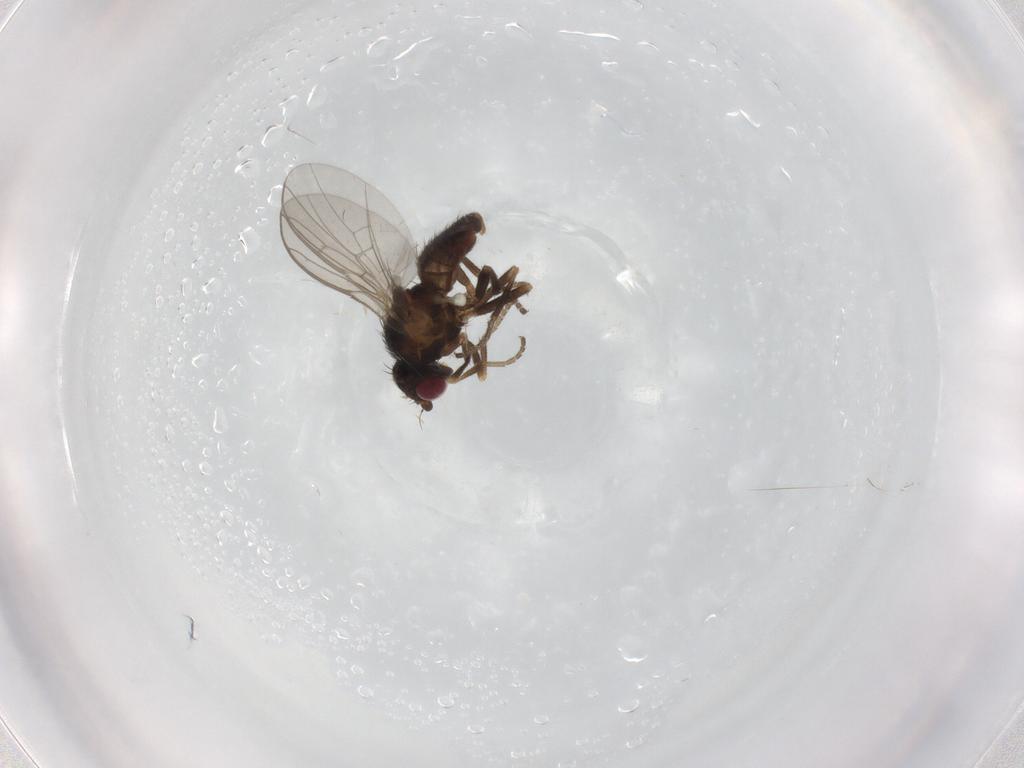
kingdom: Animalia
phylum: Arthropoda
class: Insecta
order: Diptera
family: Agromyzidae
